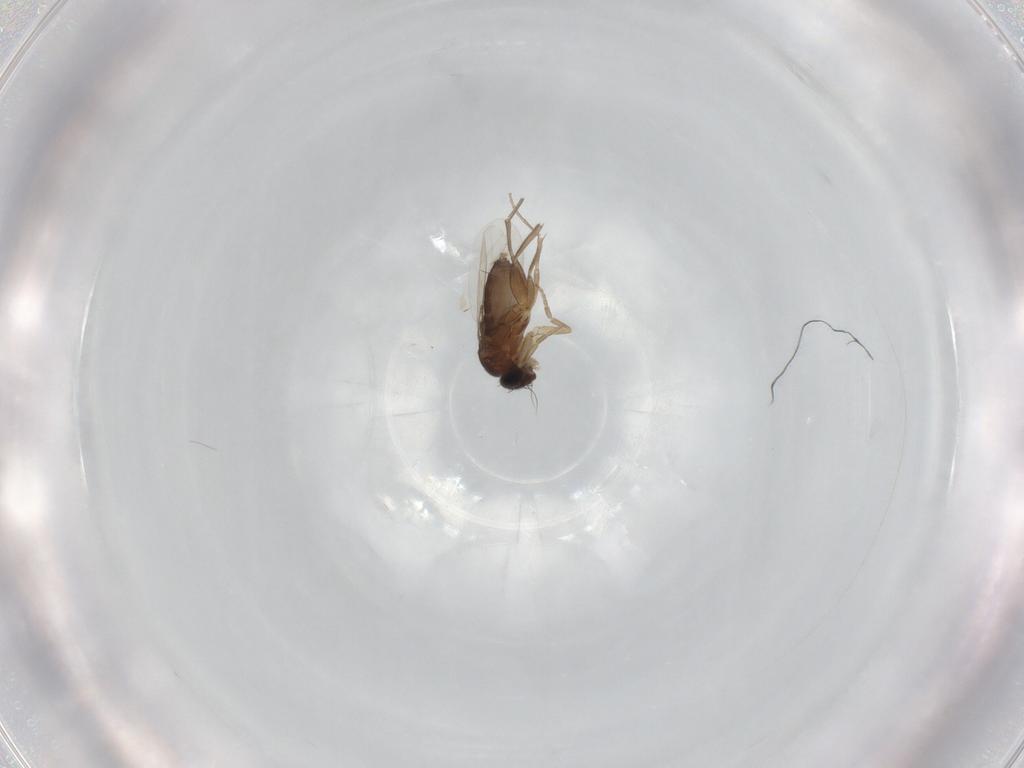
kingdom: Animalia
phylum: Arthropoda
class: Insecta
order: Diptera
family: Phoridae
